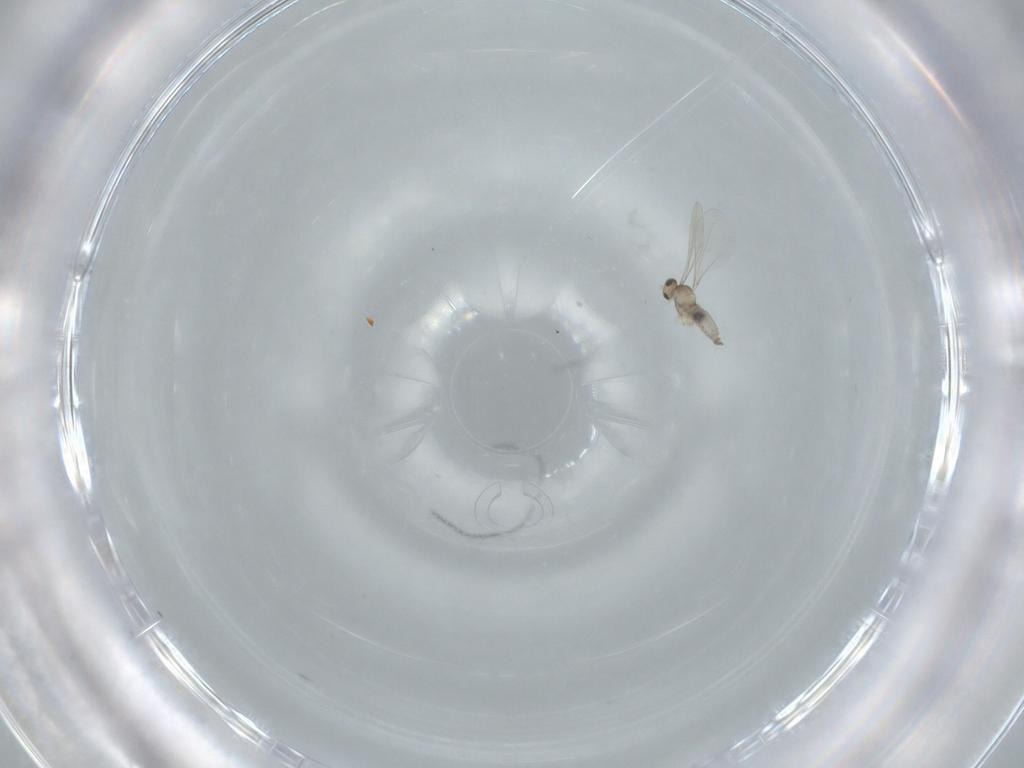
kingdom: Animalia
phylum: Arthropoda
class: Insecta
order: Diptera
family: Cecidomyiidae
